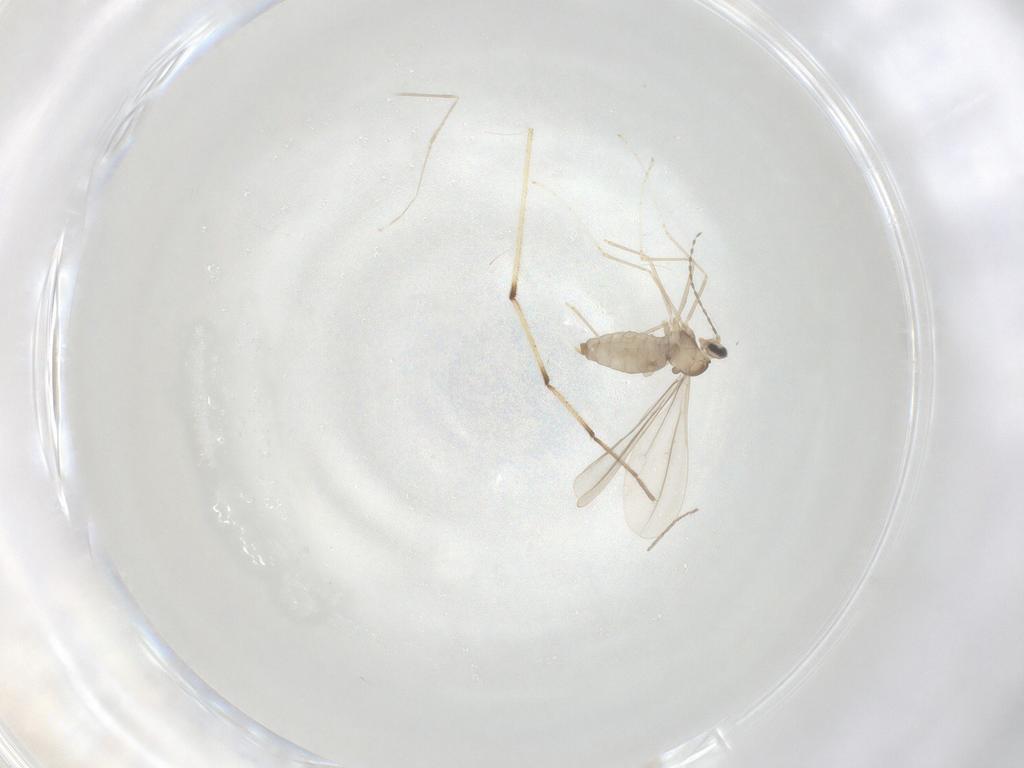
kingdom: Animalia
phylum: Arthropoda
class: Insecta
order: Diptera
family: Cecidomyiidae
